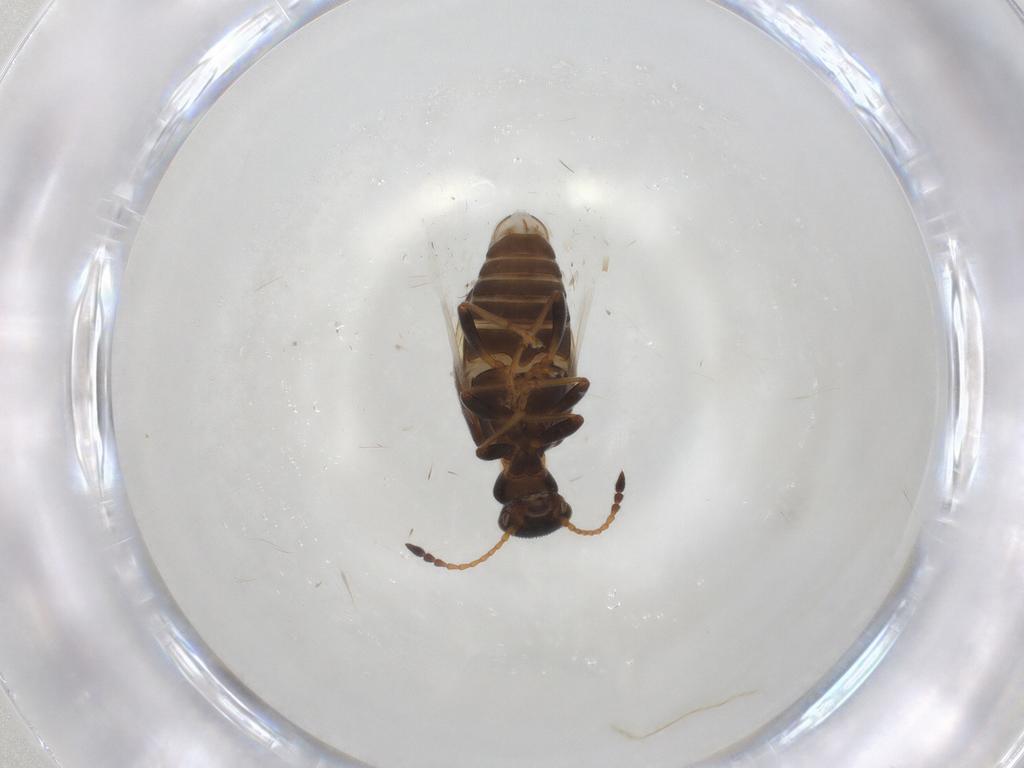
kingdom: Animalia
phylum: Arthropoda
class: Insecta
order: Coleoptera
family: Anthicidae
